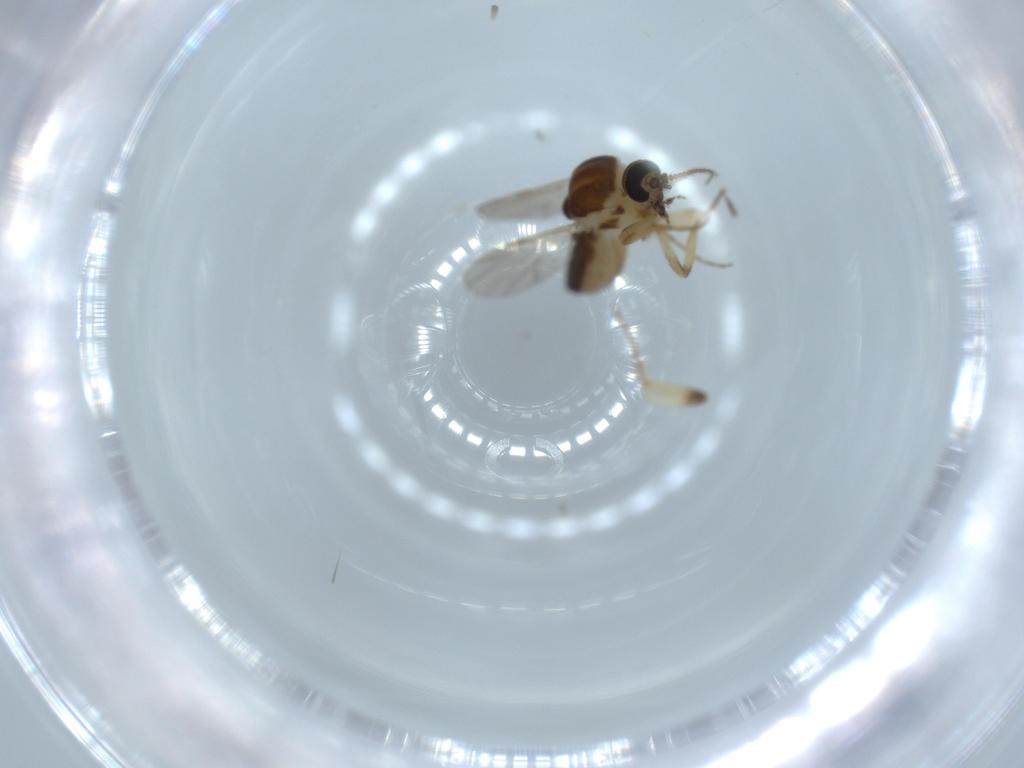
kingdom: Animalia
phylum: Arthropoda
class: Insecta
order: Diptera
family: Ceratopogonidae
